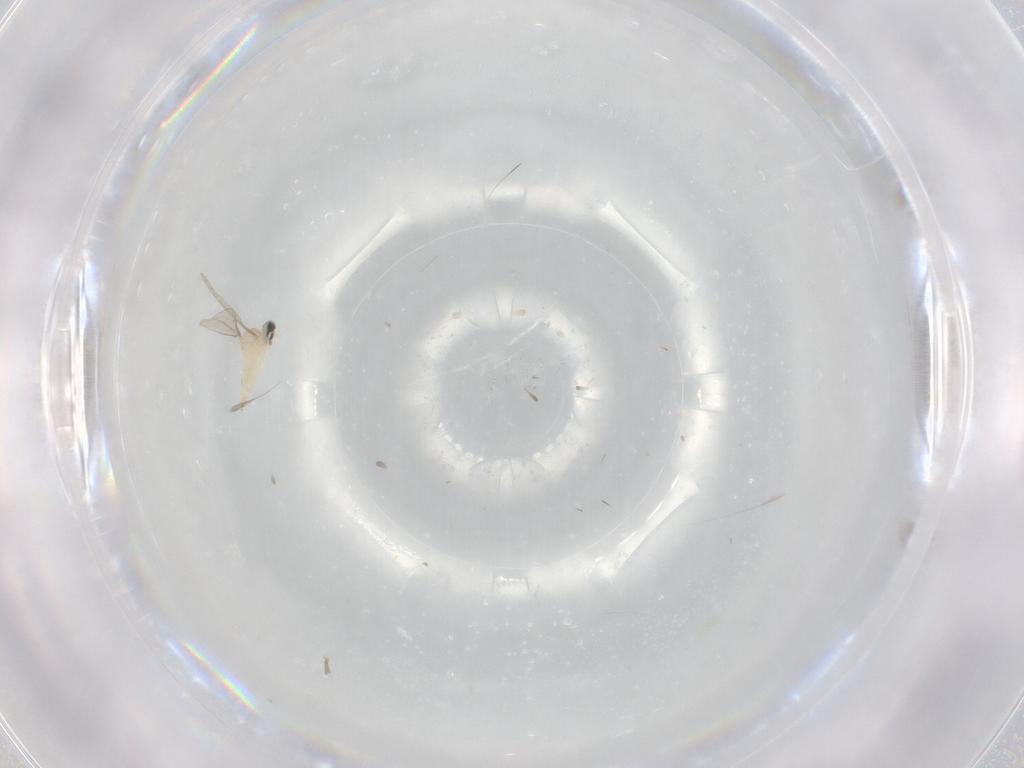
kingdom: Animalia
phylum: Arthropoda
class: Insecta
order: Diptera
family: Cecidomyiidae
